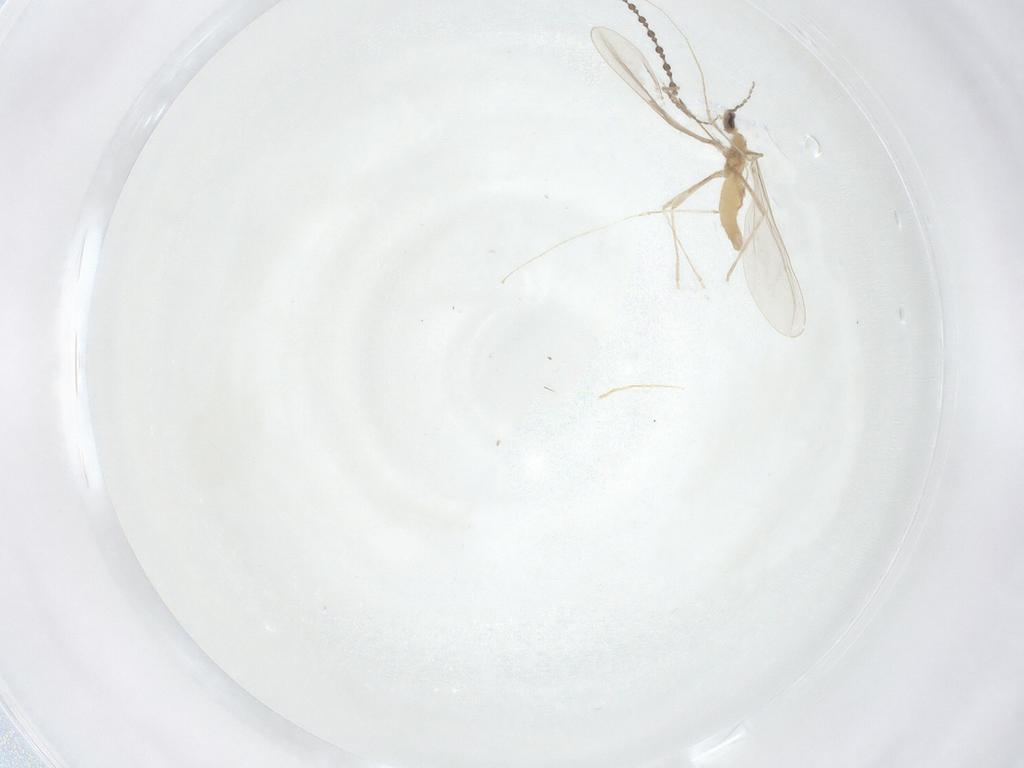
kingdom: Animalia
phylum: Arthropoda
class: Insecta
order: Diptera
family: Cecidomyiidae
